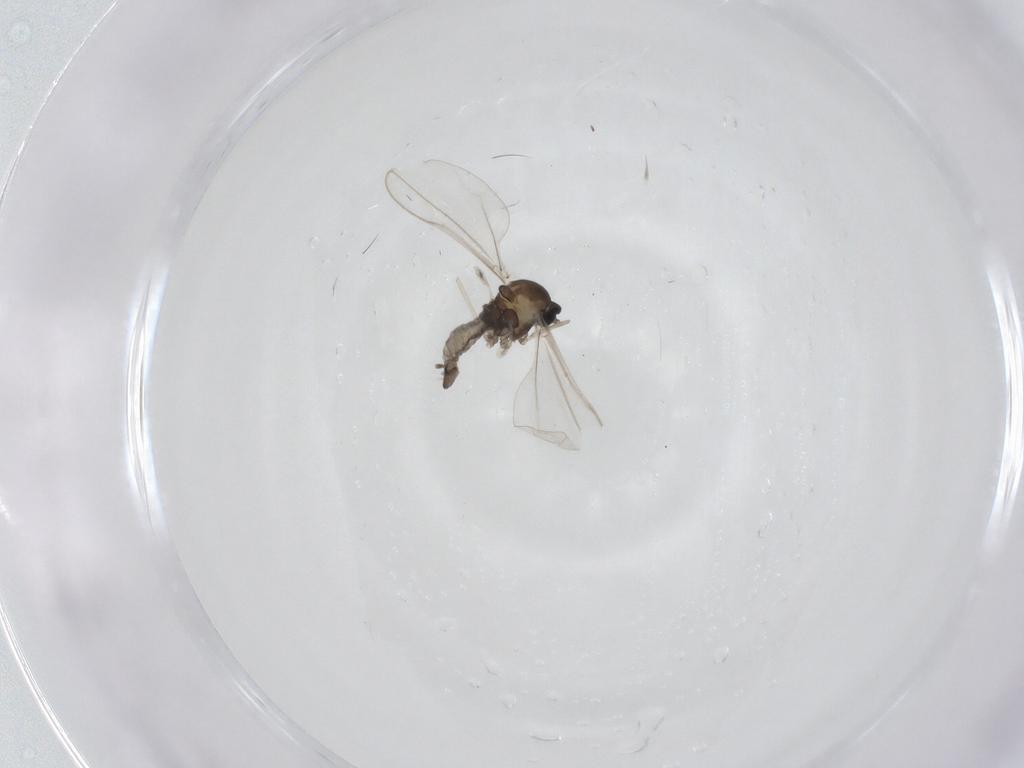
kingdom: Animalia
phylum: Arthropoda
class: Insecta
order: Diptera
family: Cecidomyiidae
